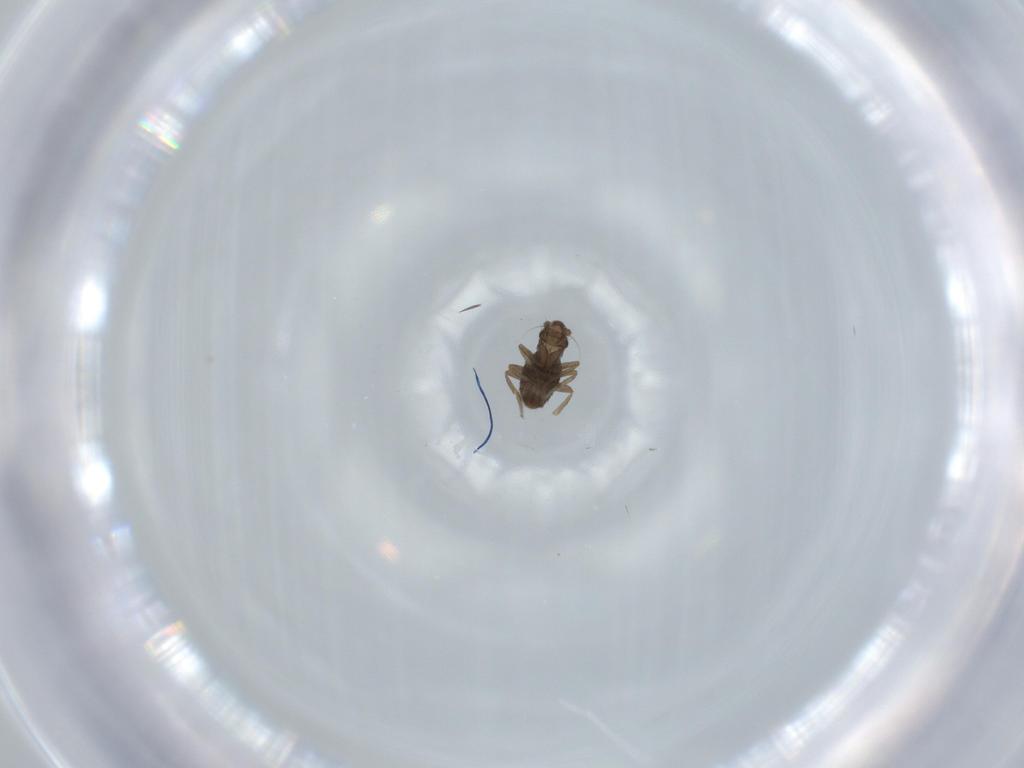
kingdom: Animalia
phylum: Arthropoda
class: Insecta
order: Diptera
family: Phoridae
